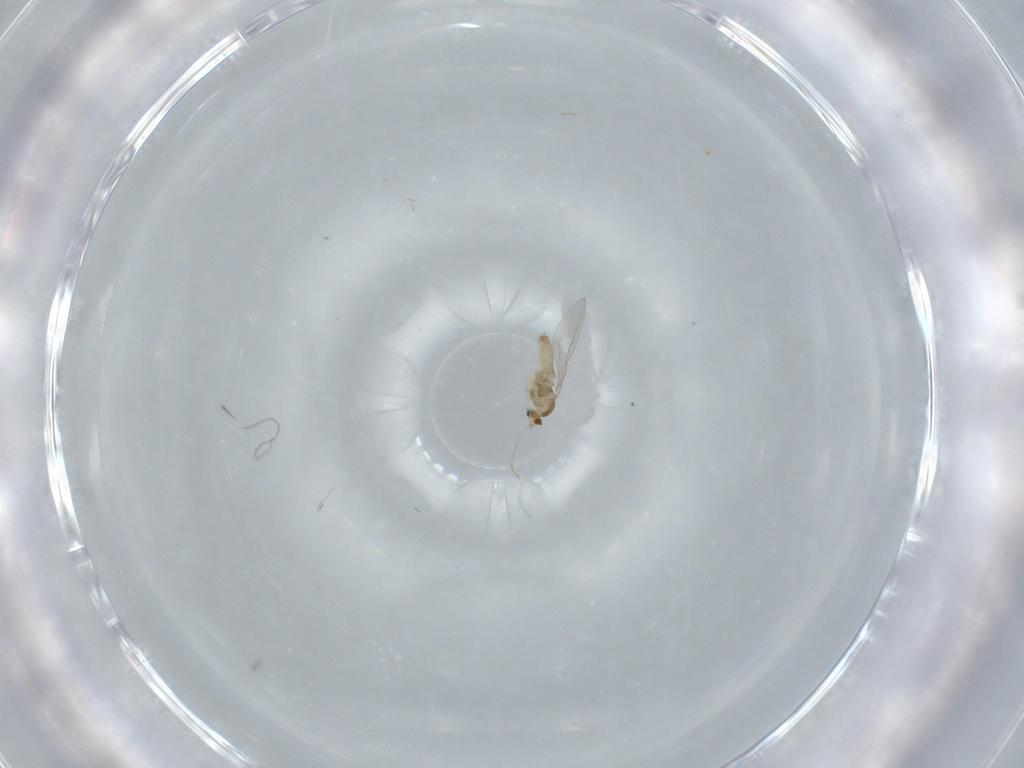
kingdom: Animalia
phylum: Arthropoda
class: Insecta
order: Diptera
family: Cecidomyiidae
